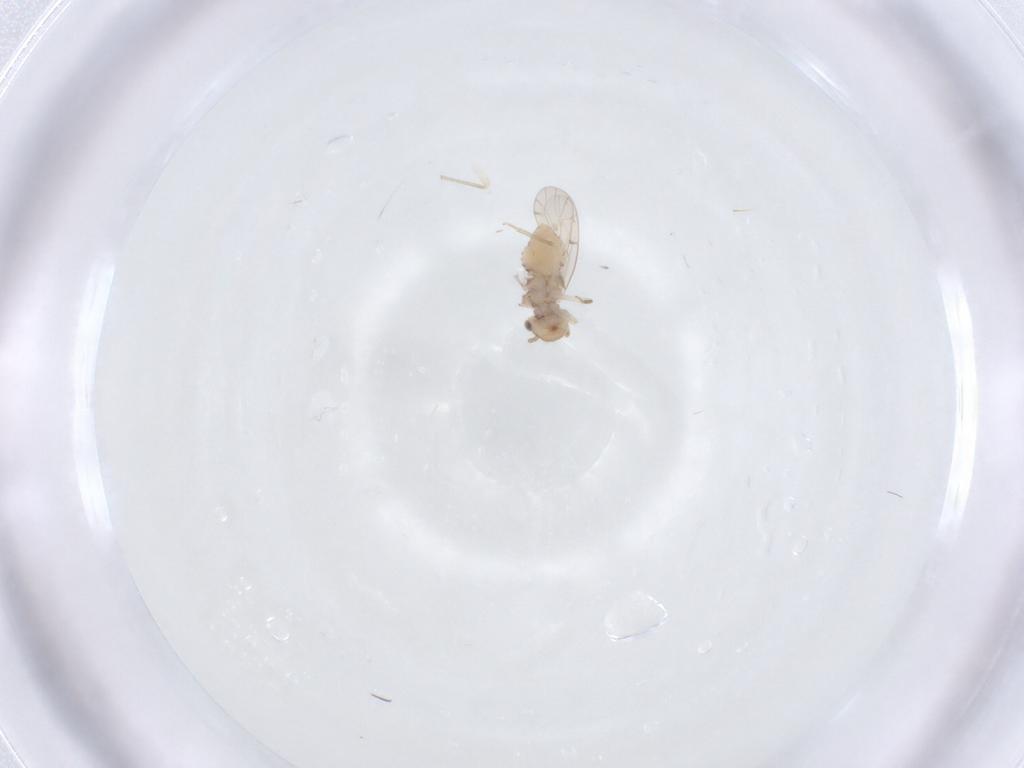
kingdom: Animalia
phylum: Arthropoda
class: Insecta
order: Psocodea
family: Ectopsocidae
